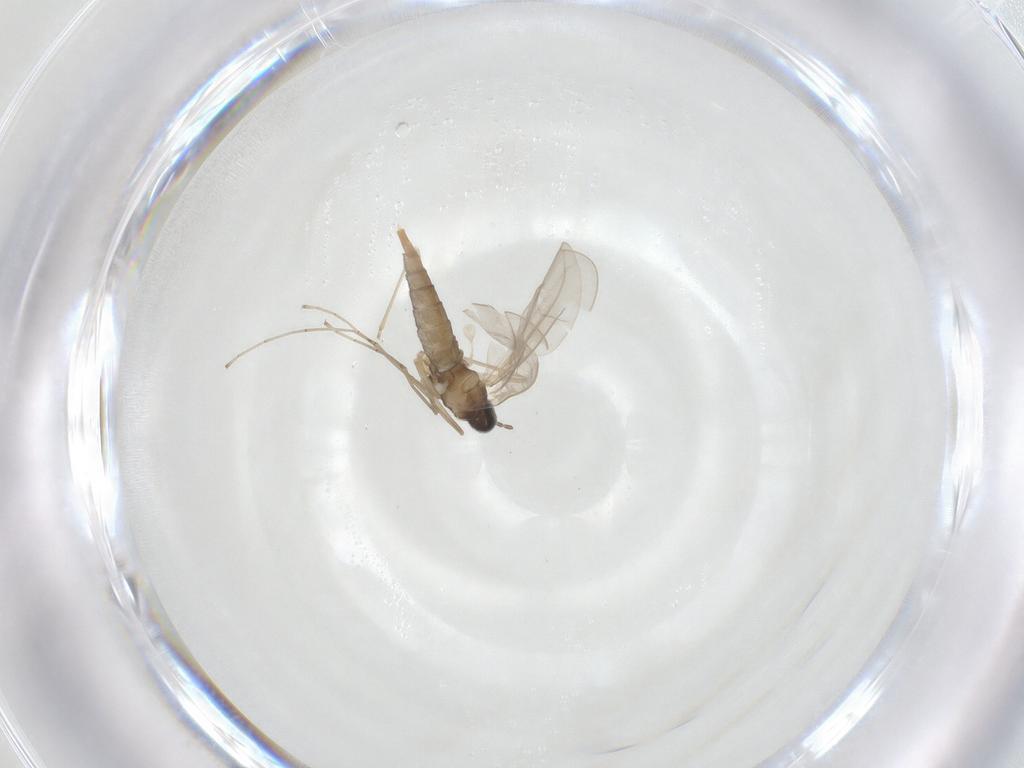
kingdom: Animalia
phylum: Arthropoda
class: Insecta
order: Diptera
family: Cecidomyiidae
